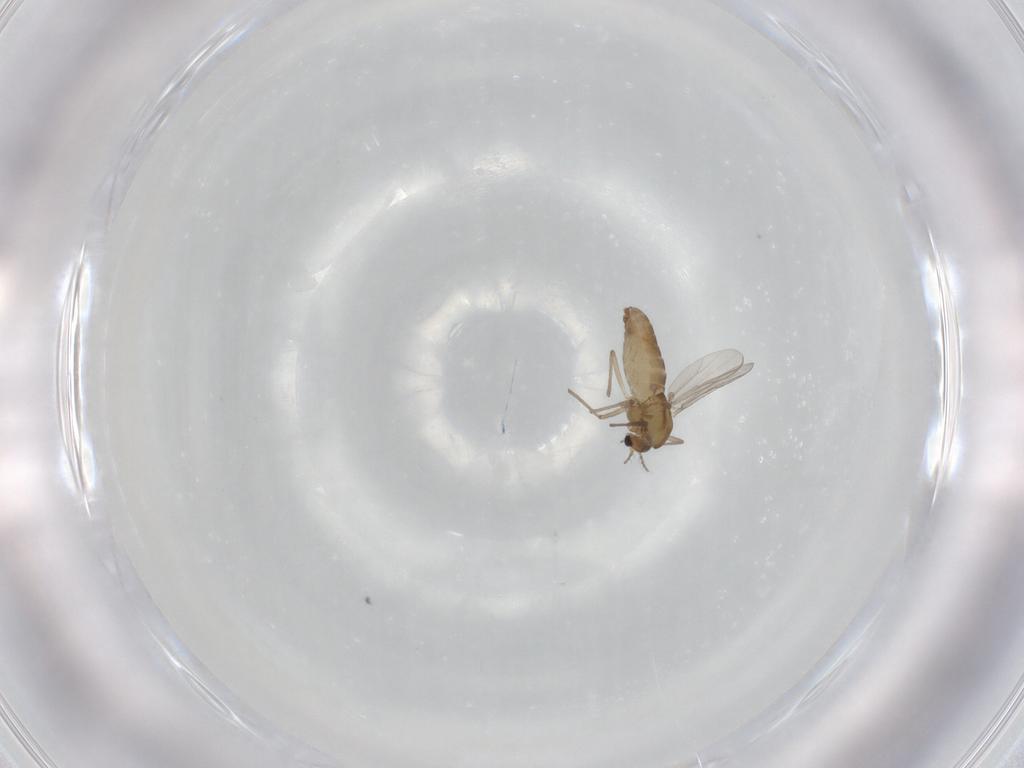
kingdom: Animalia
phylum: Arthropoda
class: Insecta
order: Diptera
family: Chironomidae
